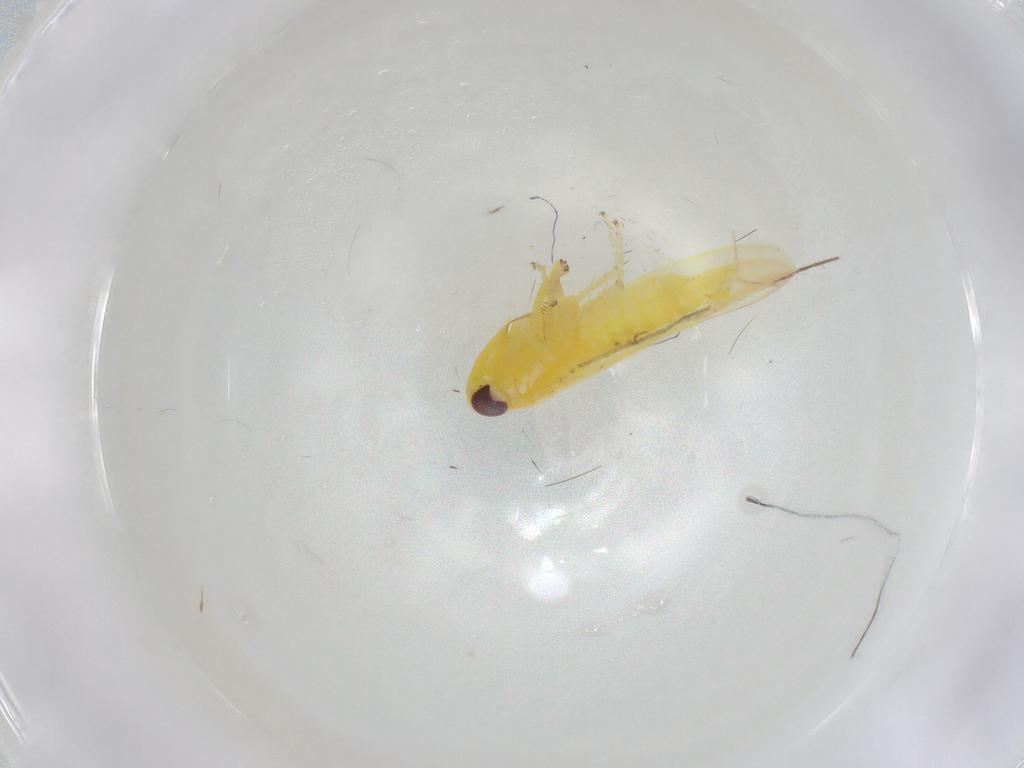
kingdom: Animalia
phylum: Arthropoda
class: Insecta
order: Hemiptera
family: Cicadellidae
